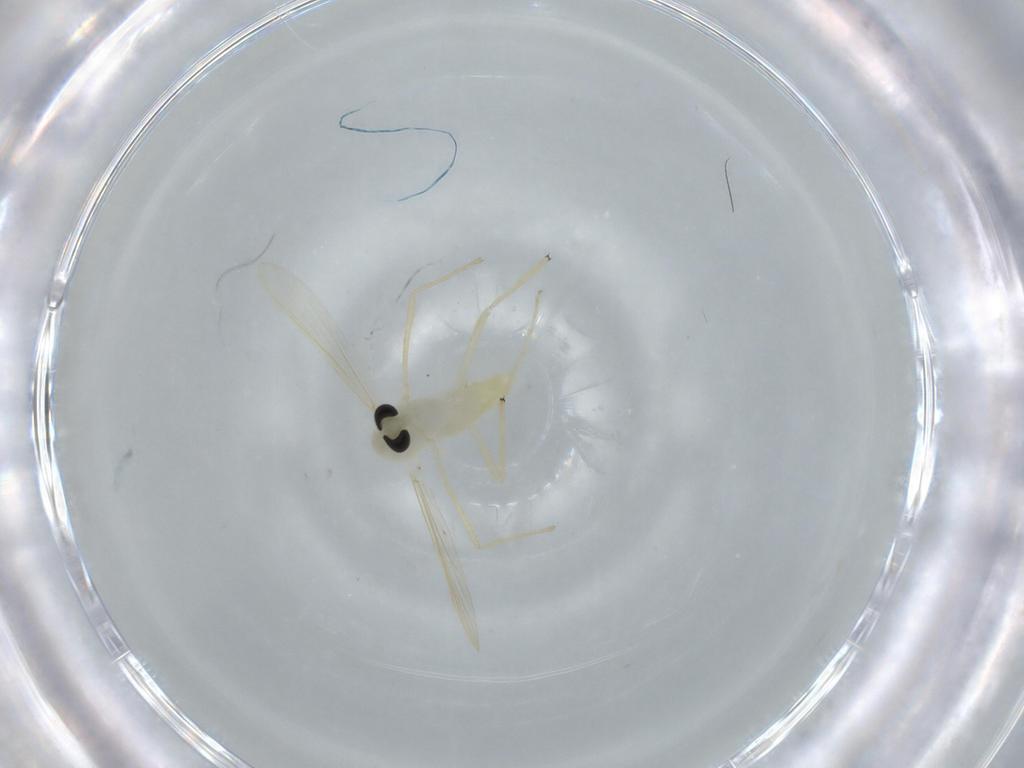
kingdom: Animalia
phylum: Arthropoda
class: Insecta
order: Diptera
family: Chironomidae
